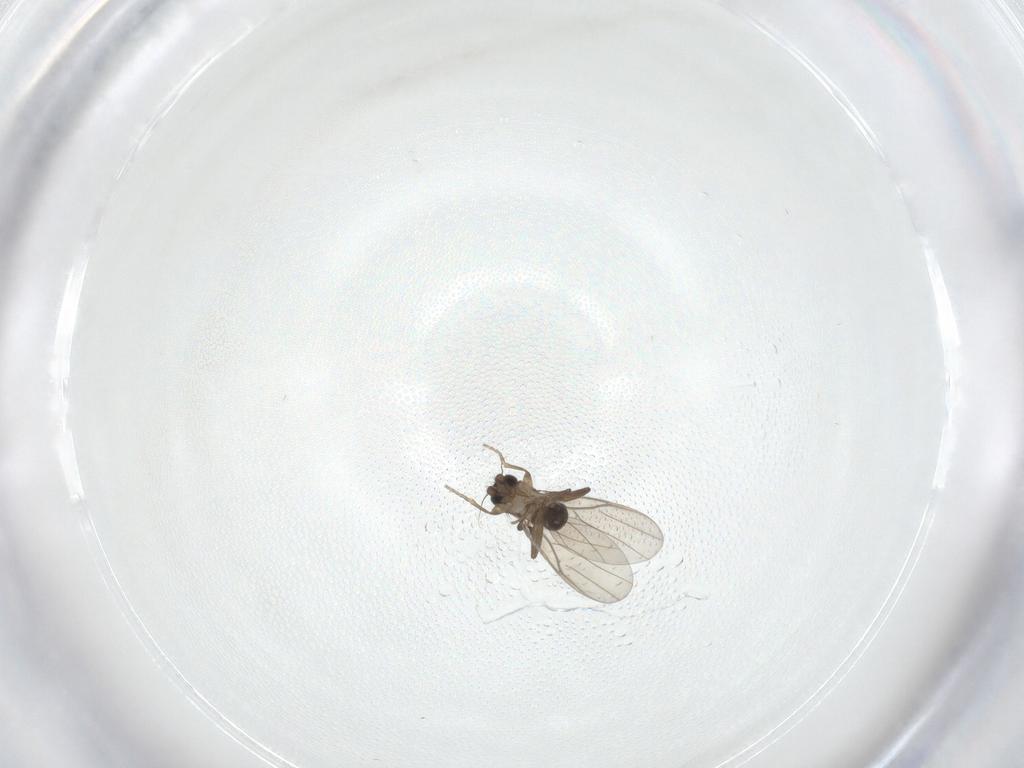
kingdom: Animalia
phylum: Arthropoda
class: Insecta
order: Diptera
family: Phoridae
